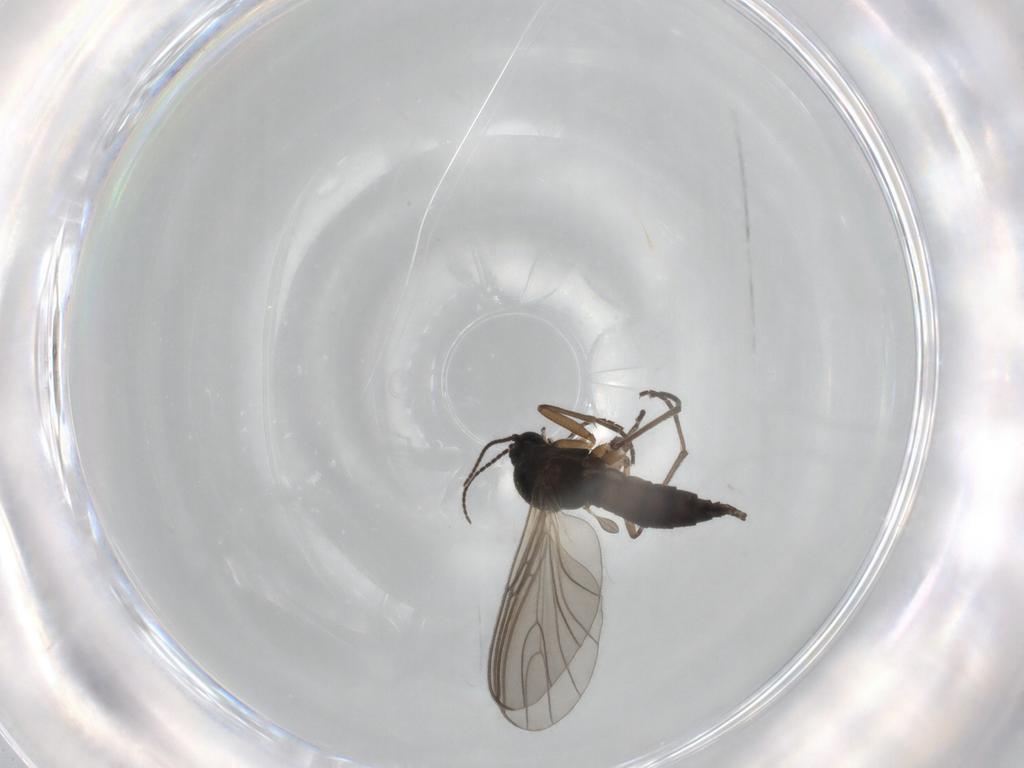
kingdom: Animalia
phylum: Arthropoda
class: Insecta
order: Diptera
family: Sciaridae
